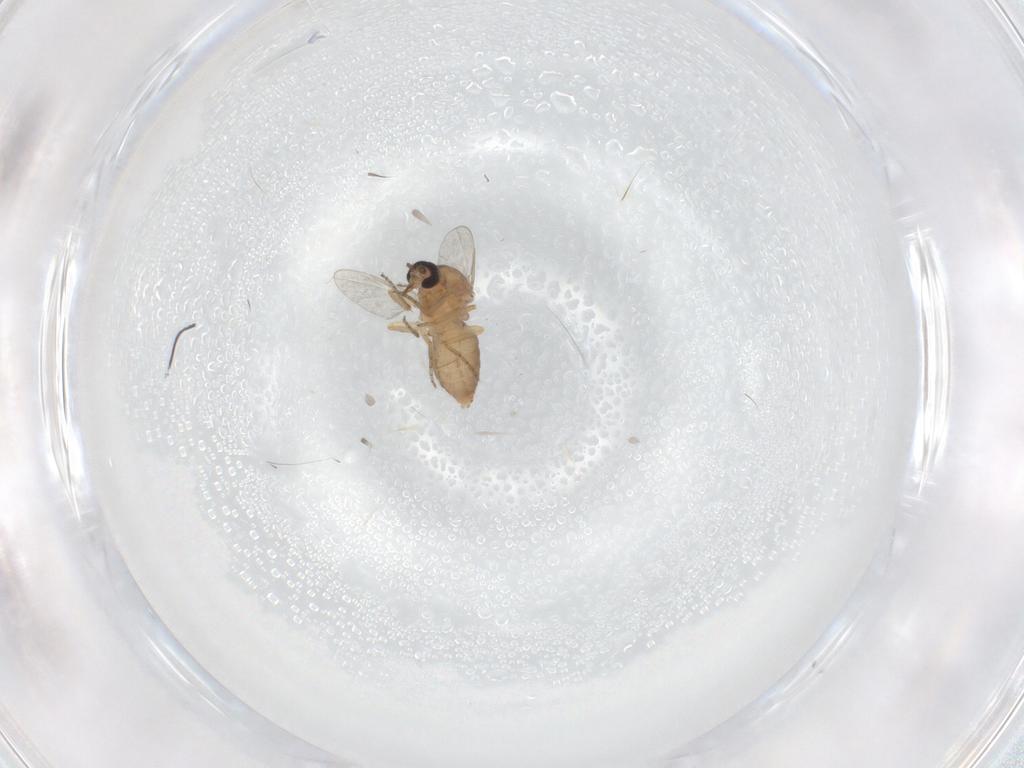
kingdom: Animalia
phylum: Arthropoda
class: Insecta
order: Diptera
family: Ceratopogonidae
